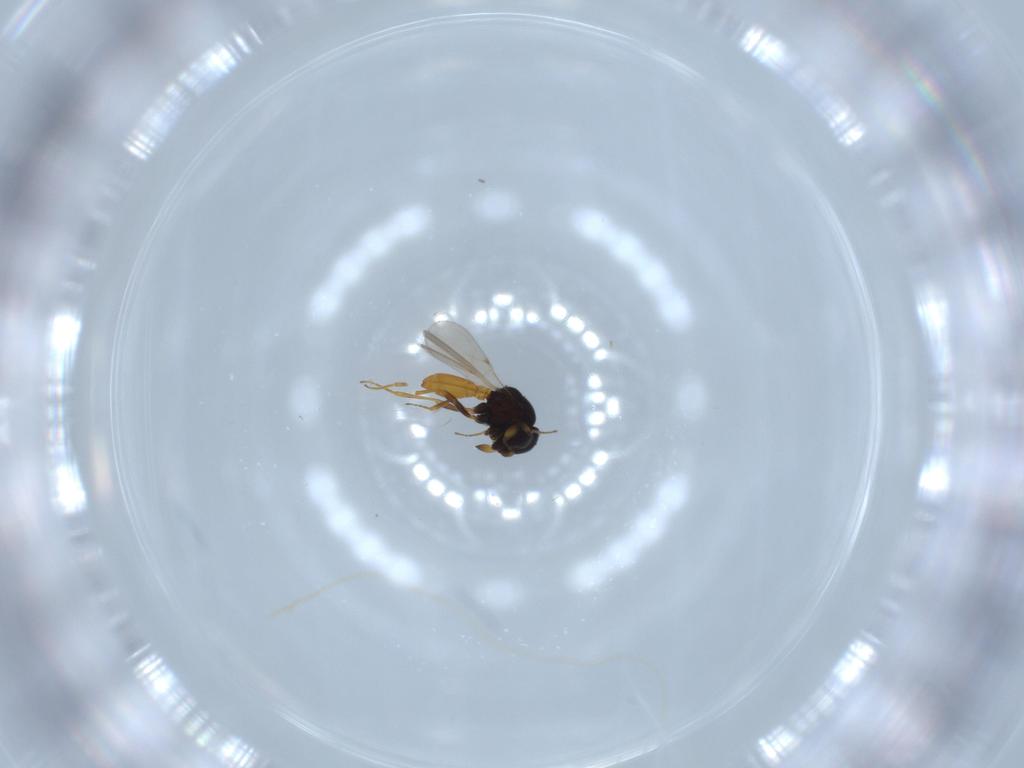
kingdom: Animalia
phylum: Arthropoda
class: Insecta
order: Hymenoptera
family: Scelionidae
